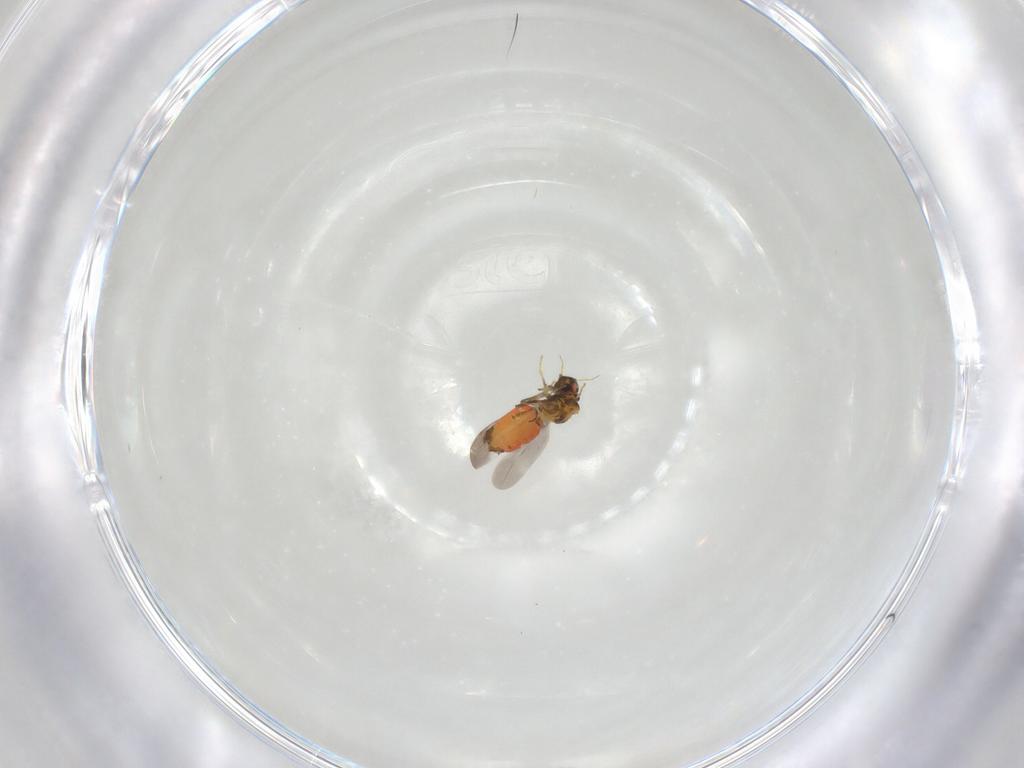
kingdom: Animalia
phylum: Arthropoda
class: Insecta
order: Hemiptera
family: Aleyrodidae
